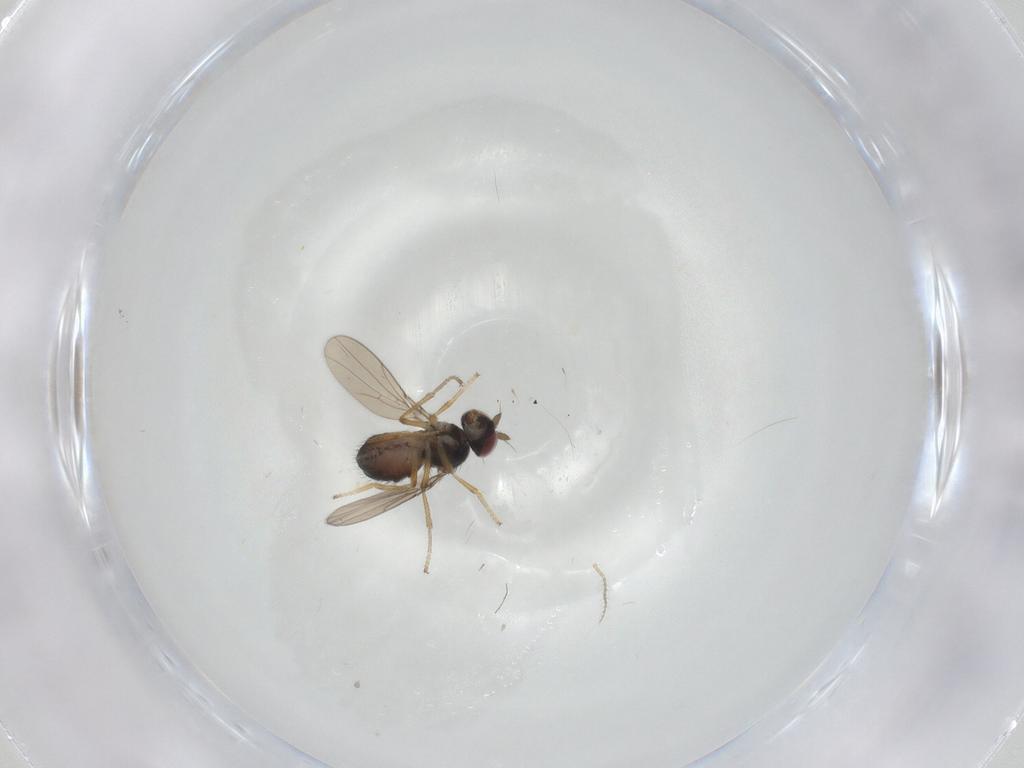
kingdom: Animalia
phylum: Arthropoda
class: Insecta
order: Diptera
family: Ephydridae
